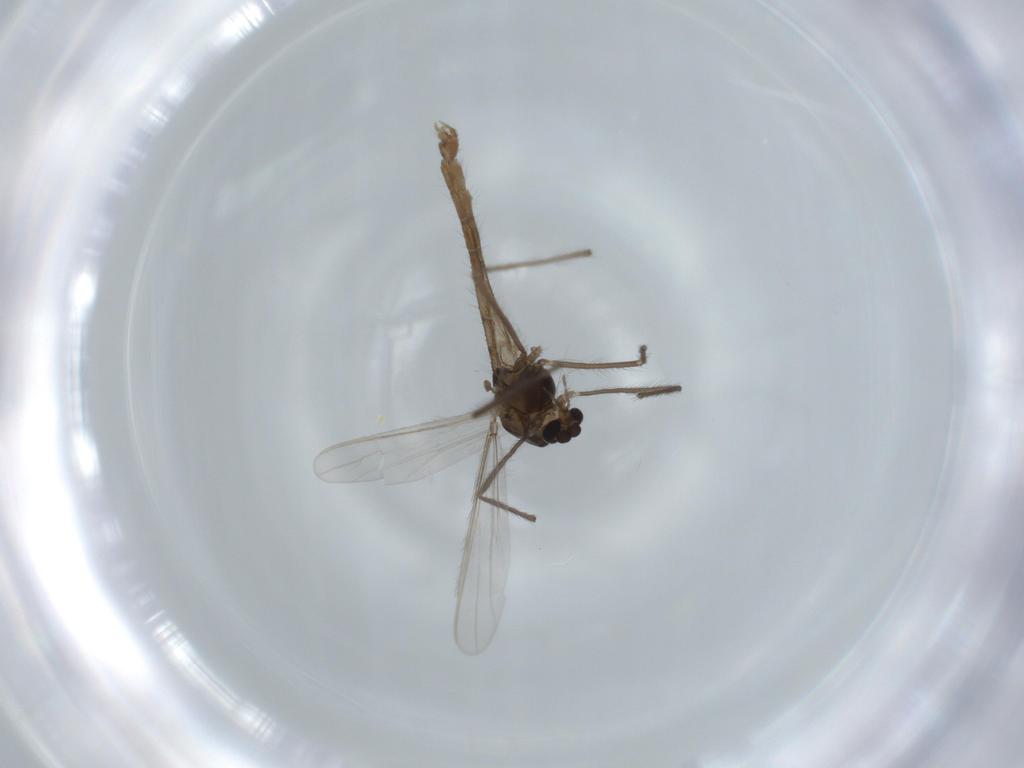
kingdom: Animalia
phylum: Arthropoda
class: Insecta
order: Diptera
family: Chironomidae
